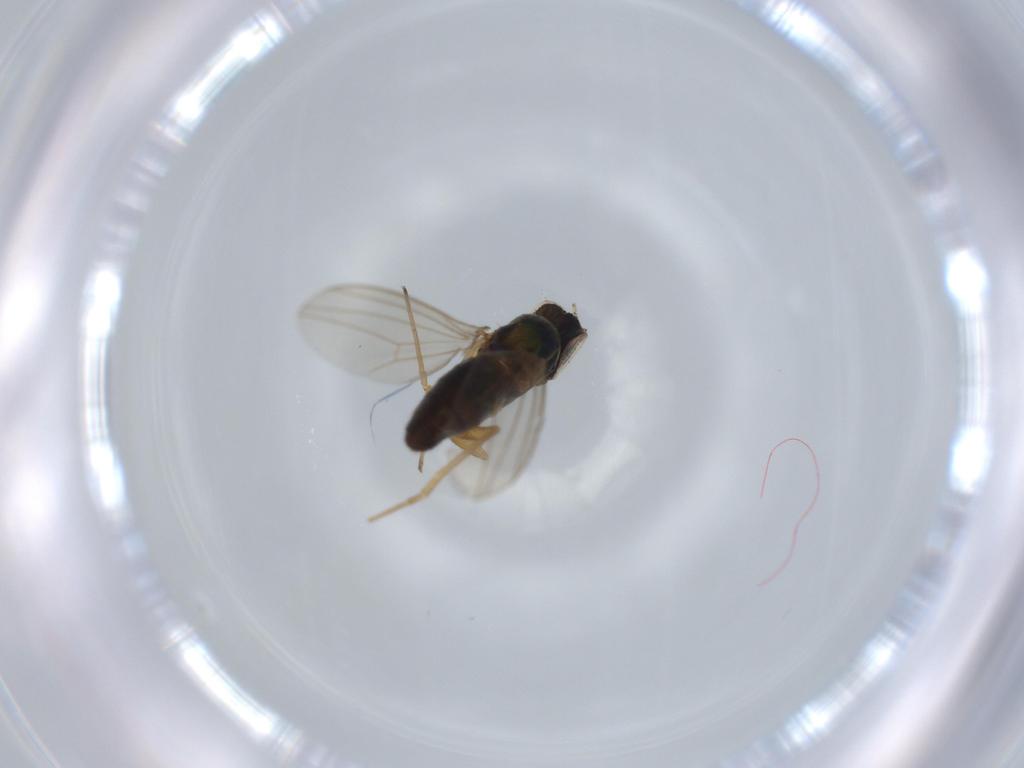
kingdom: Animalia
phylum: Arthropoda
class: Insecta
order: Diptera
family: Dolichopodidae
